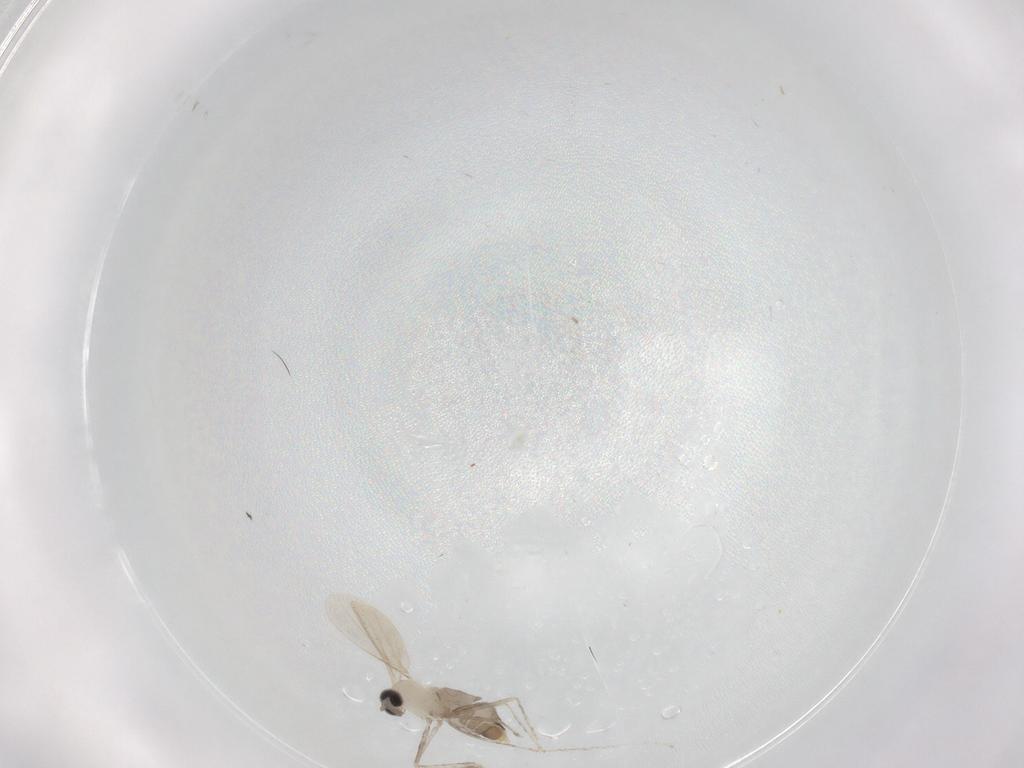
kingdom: Animalia
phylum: Arthropoda
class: Insecta
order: Diptera
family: Cecidomyiidae
